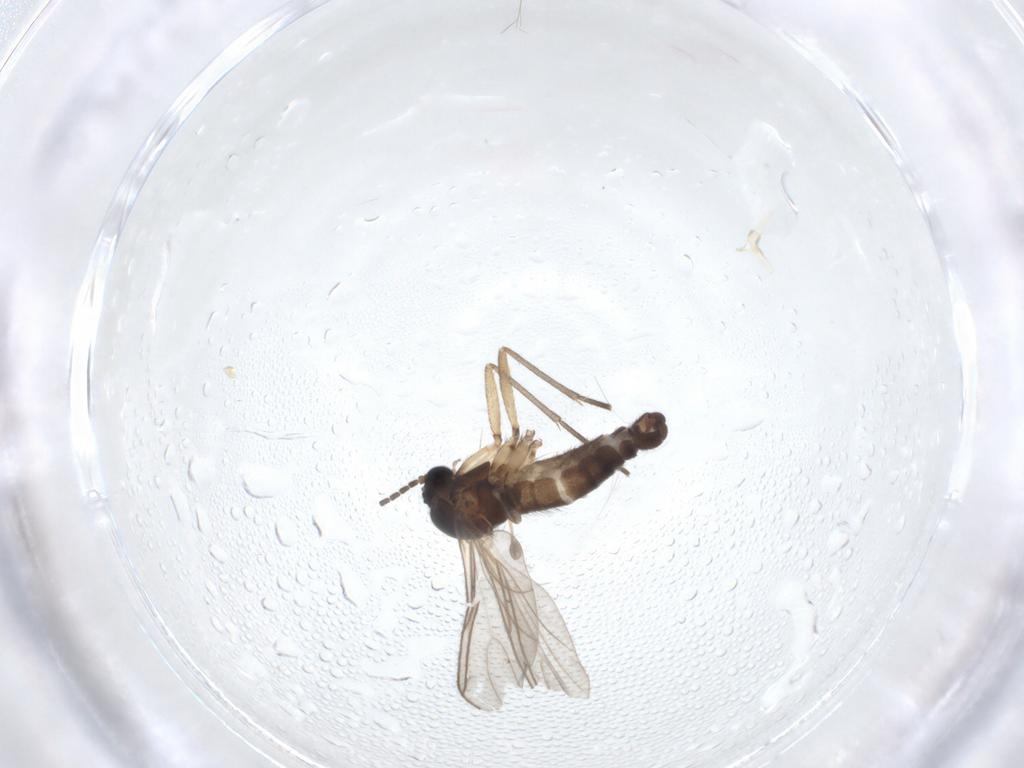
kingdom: Animalia
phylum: Arthropoda
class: Insecta
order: Diptera
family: Sciaridae
